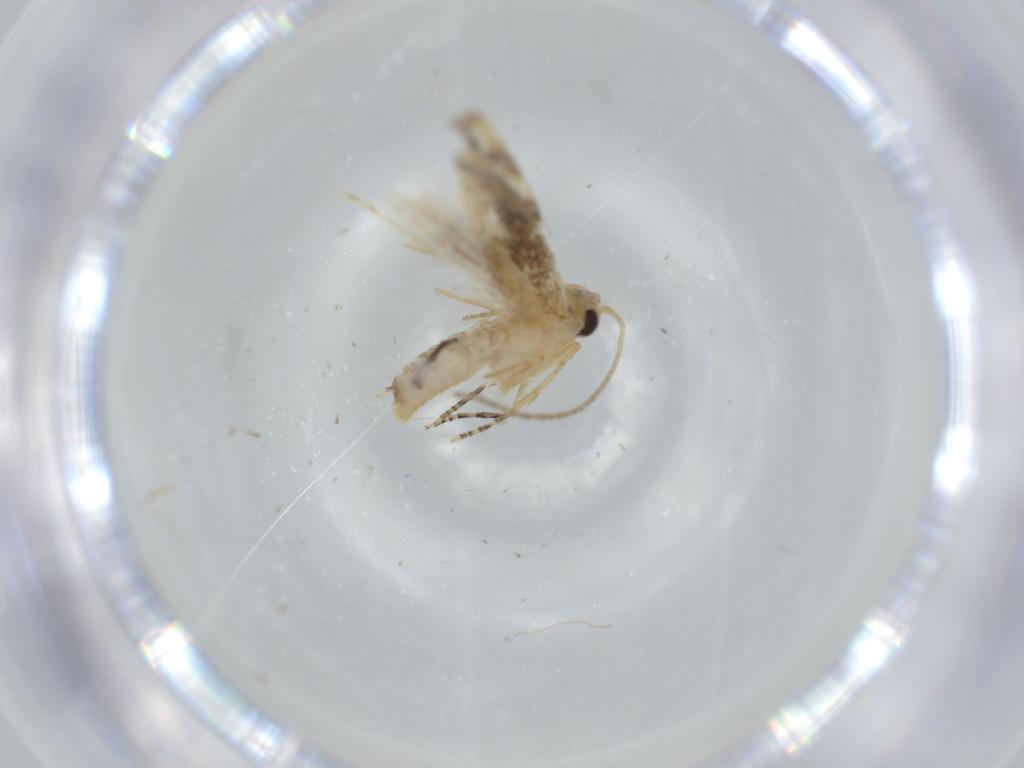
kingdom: Animalia
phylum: Arthropoda
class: Insecta
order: Lepidoptera
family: Bucculatricidae
